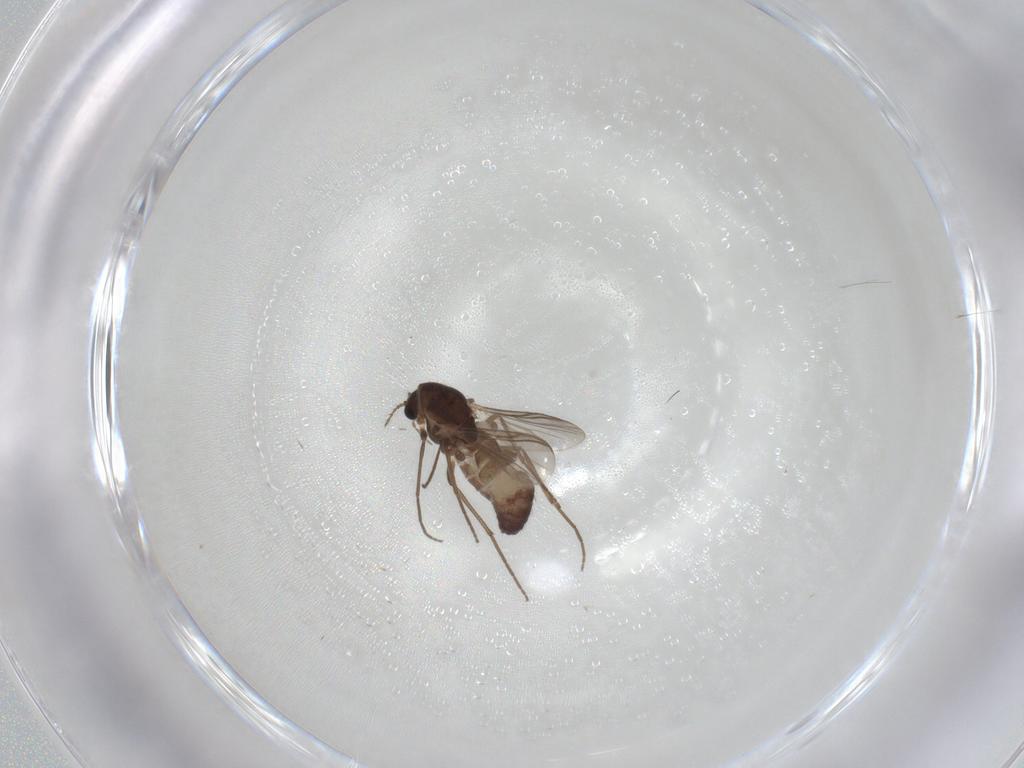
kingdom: Animalia
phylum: Arthropoda
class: Insecta
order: Diptera
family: Chironomidae
